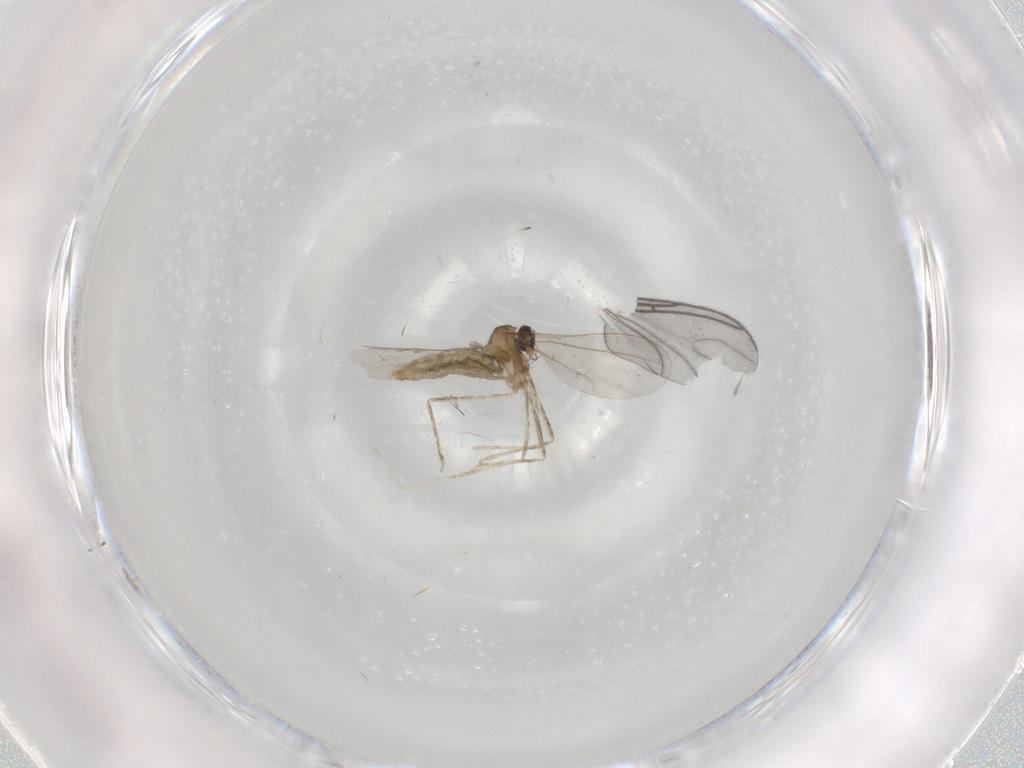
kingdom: Animalia
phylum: Arthropoda
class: Insecta
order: Diptera
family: Cecidomyiidae
